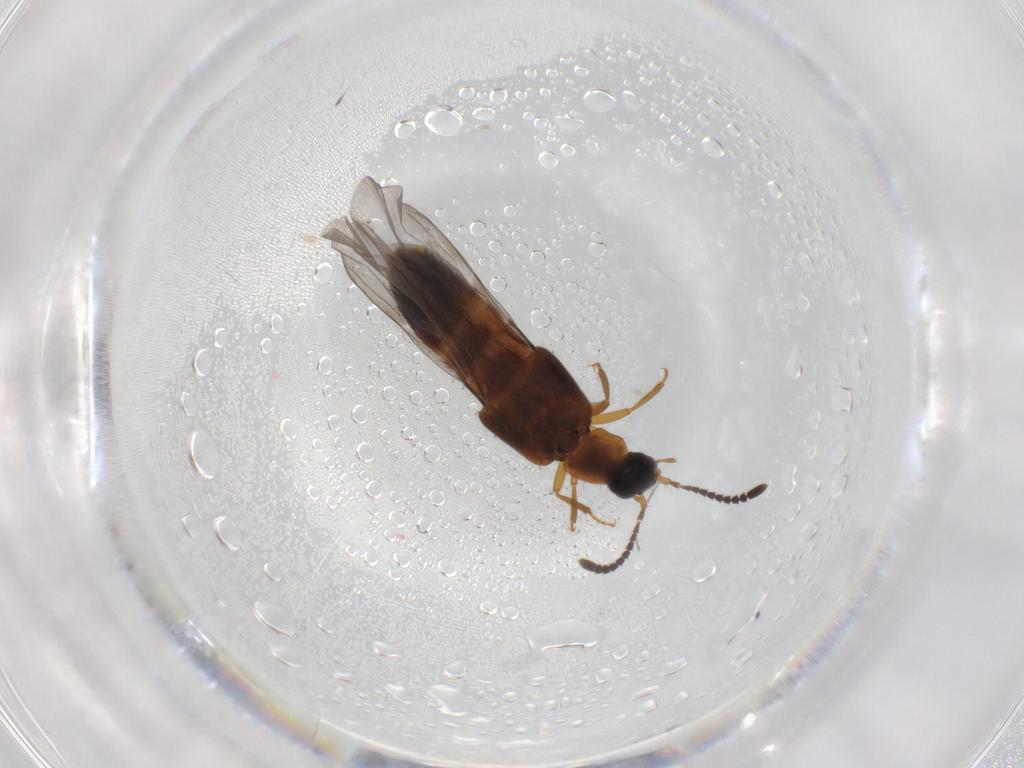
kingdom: Animalia
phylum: Arthropoda
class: Insecta
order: Coleoptera
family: Staphylinidae
